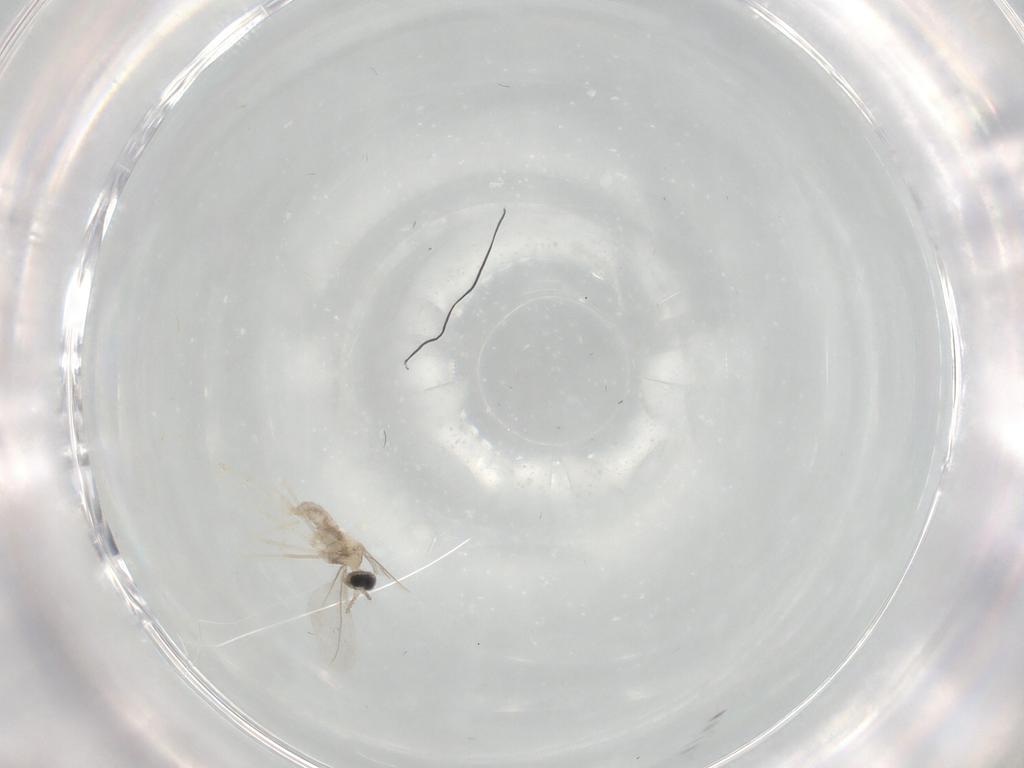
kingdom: Animalia
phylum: Arthropoda
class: Insecta
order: Diptera
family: Cecidomyiidae
